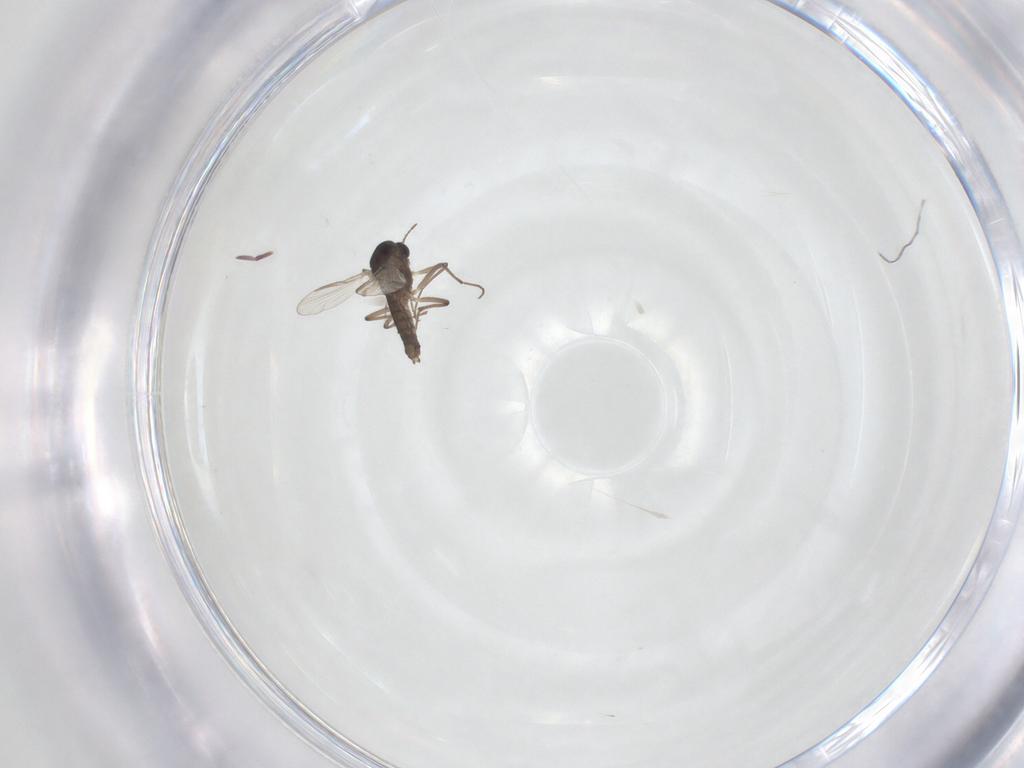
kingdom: Animalia
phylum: Arthropoda
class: Insecta
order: Diptera
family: Chironomidae
